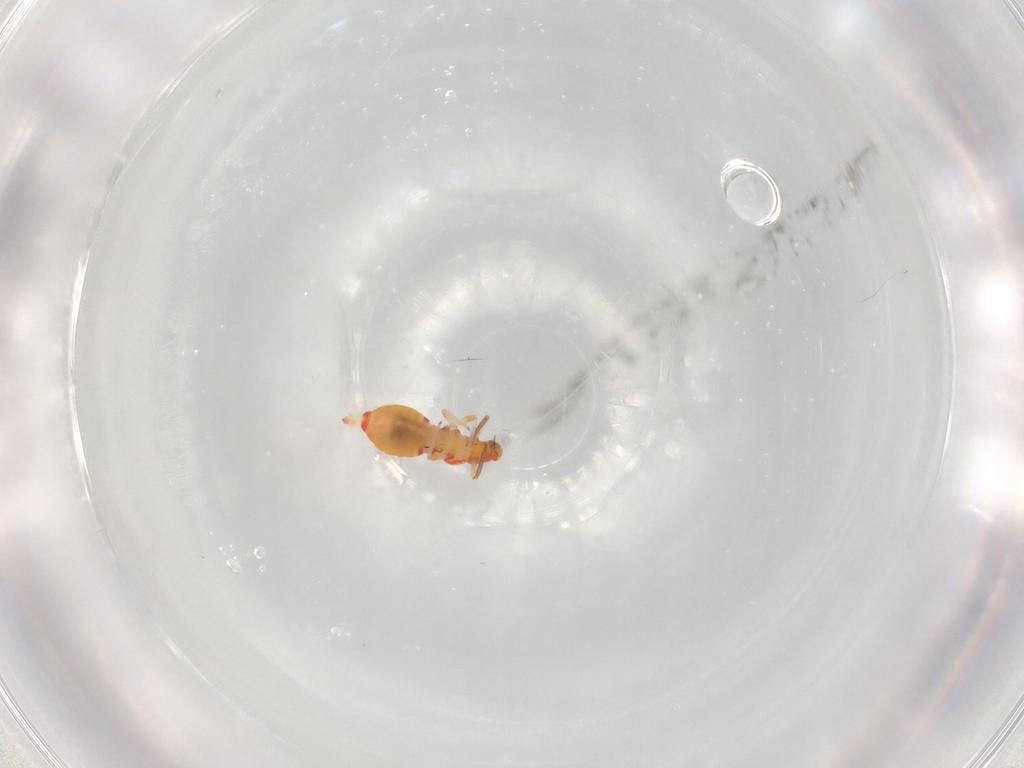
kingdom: Animalia
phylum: Arthropoda
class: Insecta
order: Thysanoptera
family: Aeolothripidae
